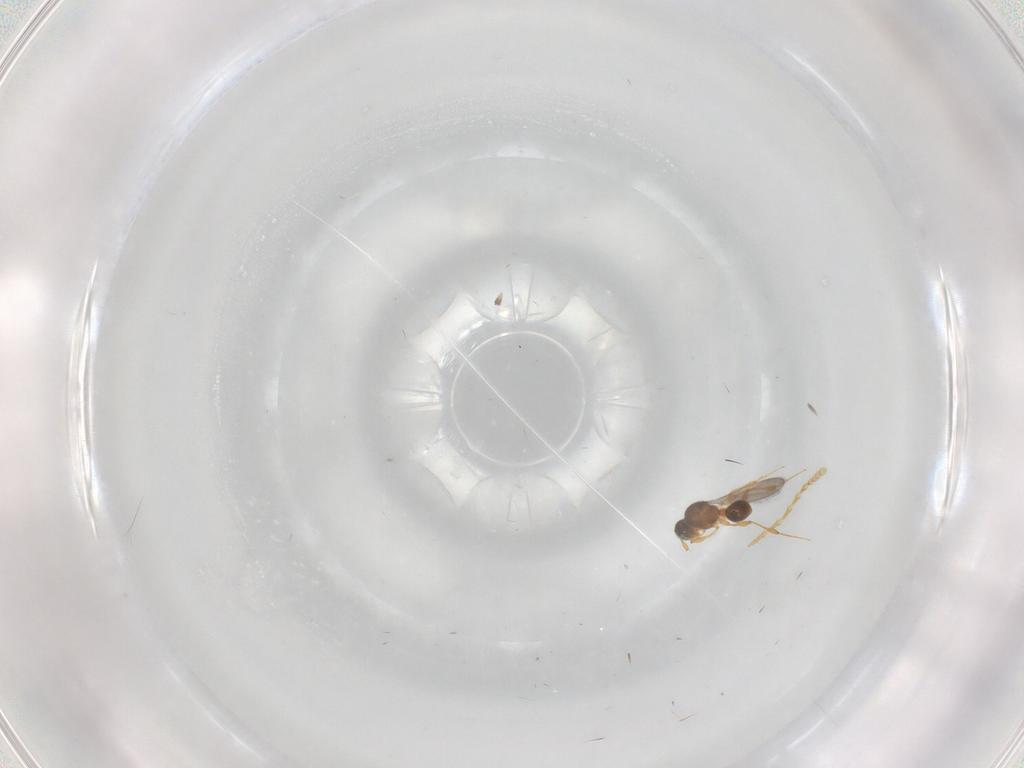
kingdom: Animalia
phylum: Arthropoda
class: Insecta
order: Hymenoptera
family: Platygastridae
